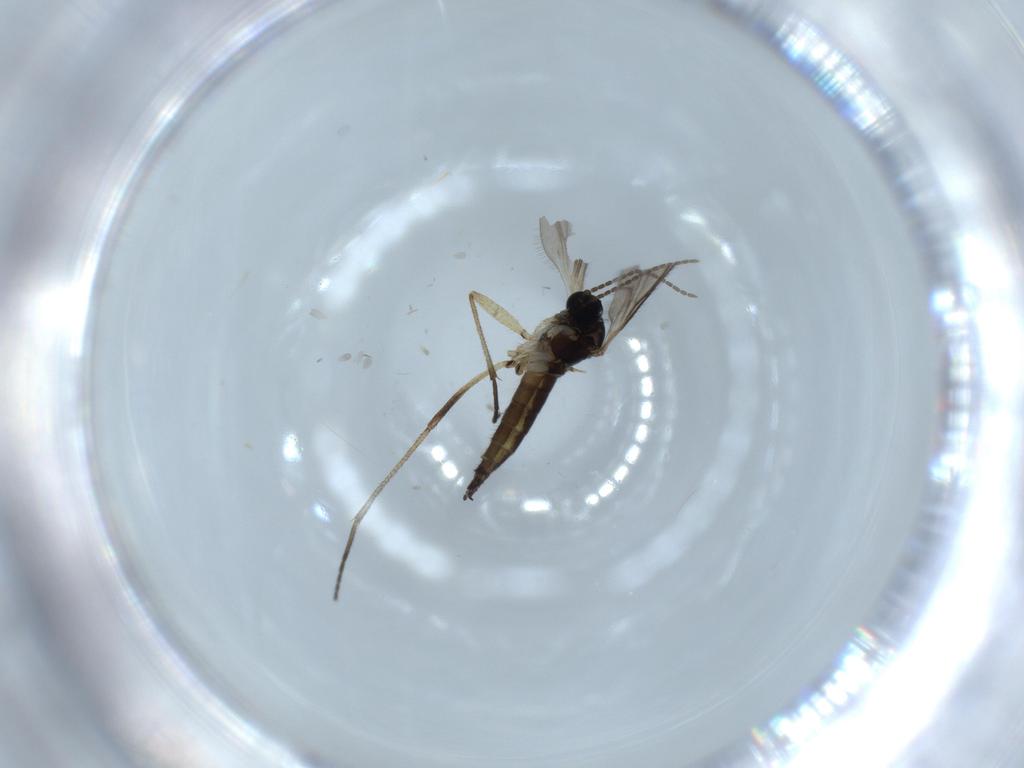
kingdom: Animalia
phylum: Arthropoda
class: Insecta
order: Diptera
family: Sciaridae
